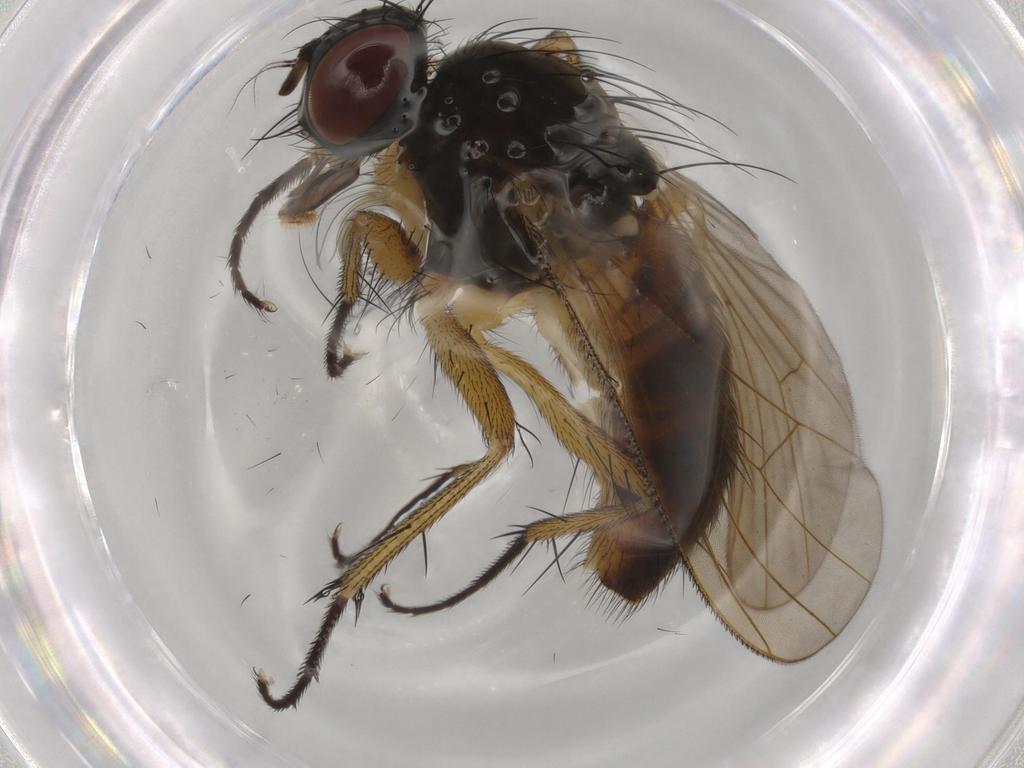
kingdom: Animalia
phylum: Arthropoda
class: Insecta
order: Diptera
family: Muscidae
